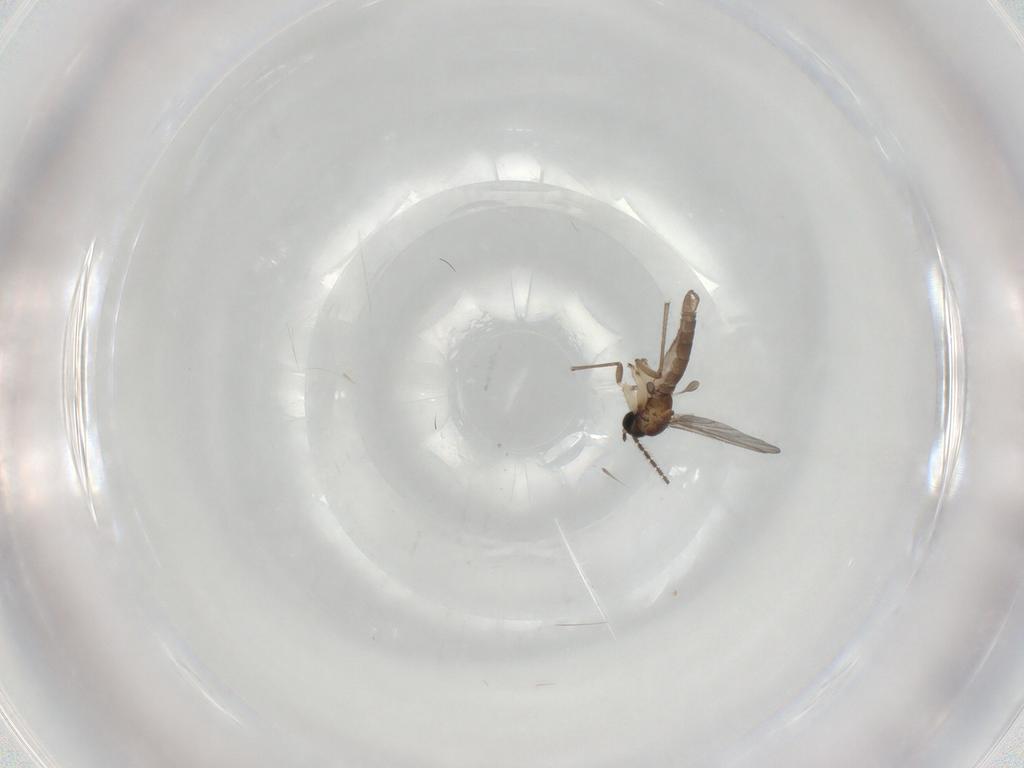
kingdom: Animalia
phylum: Arthropoda
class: Insecta
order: Diptera
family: Sciaridae
